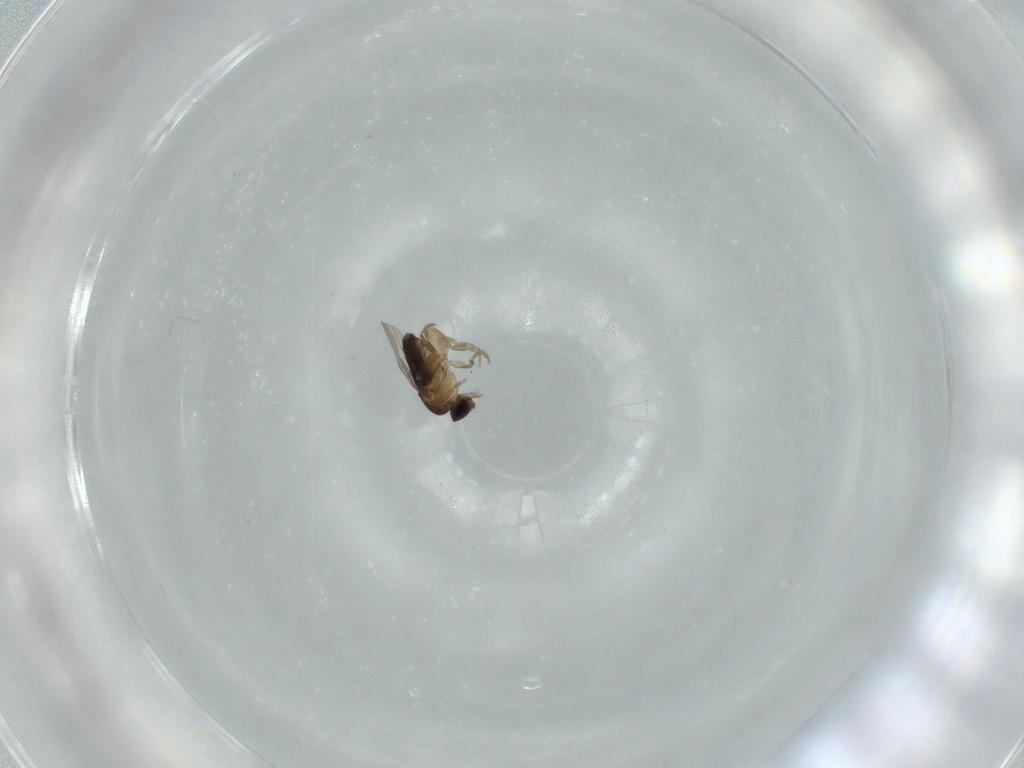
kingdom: Animalia
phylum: Arthropoda
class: Insecta
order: Diptera
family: Phoridae
